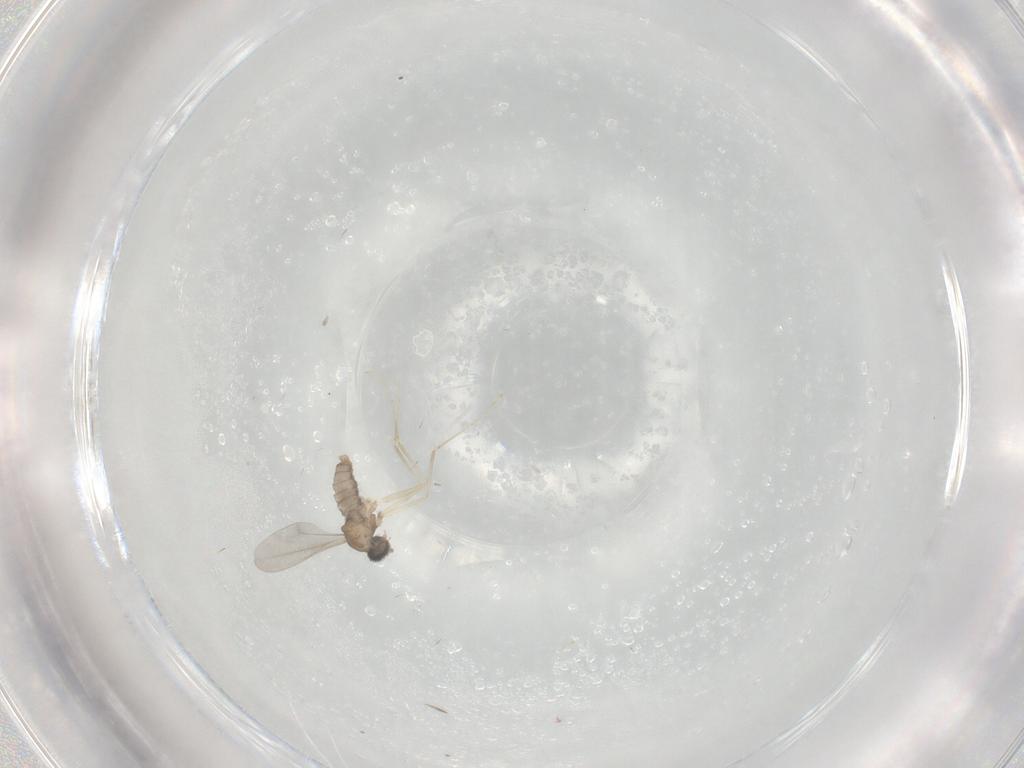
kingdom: Animalia
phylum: Arthropoda
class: Insecta
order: Diptera
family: Cecidomyiidae
